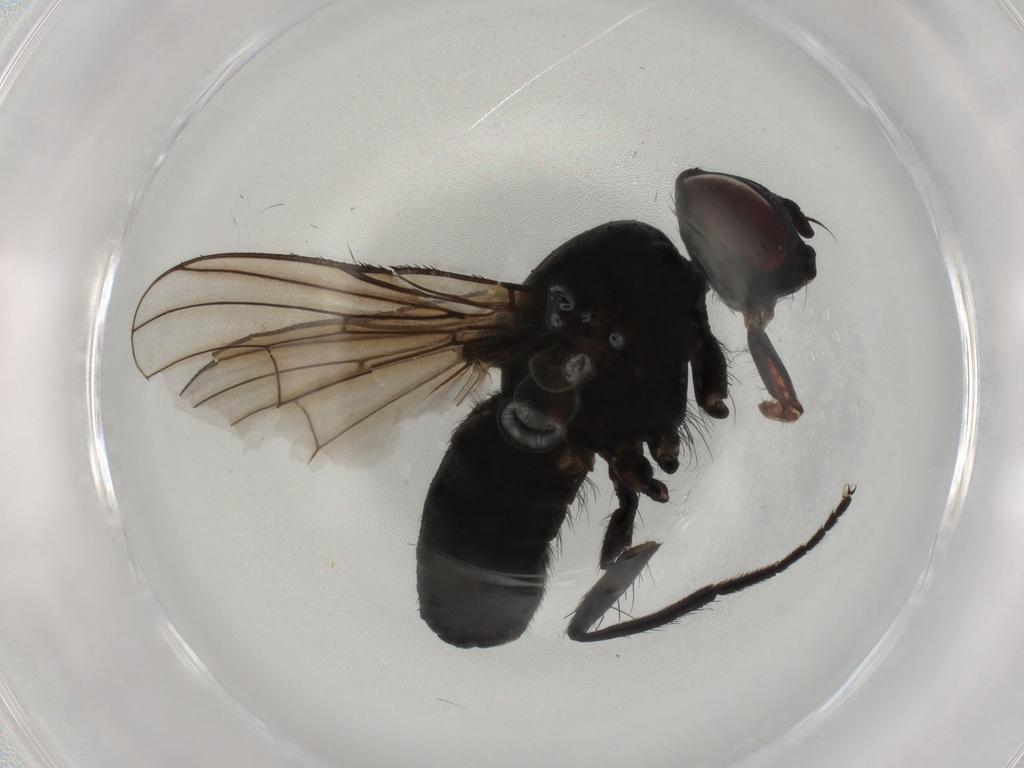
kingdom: Animalia
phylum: Arthropoda
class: Insecta
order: Diptera
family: Muscidae
